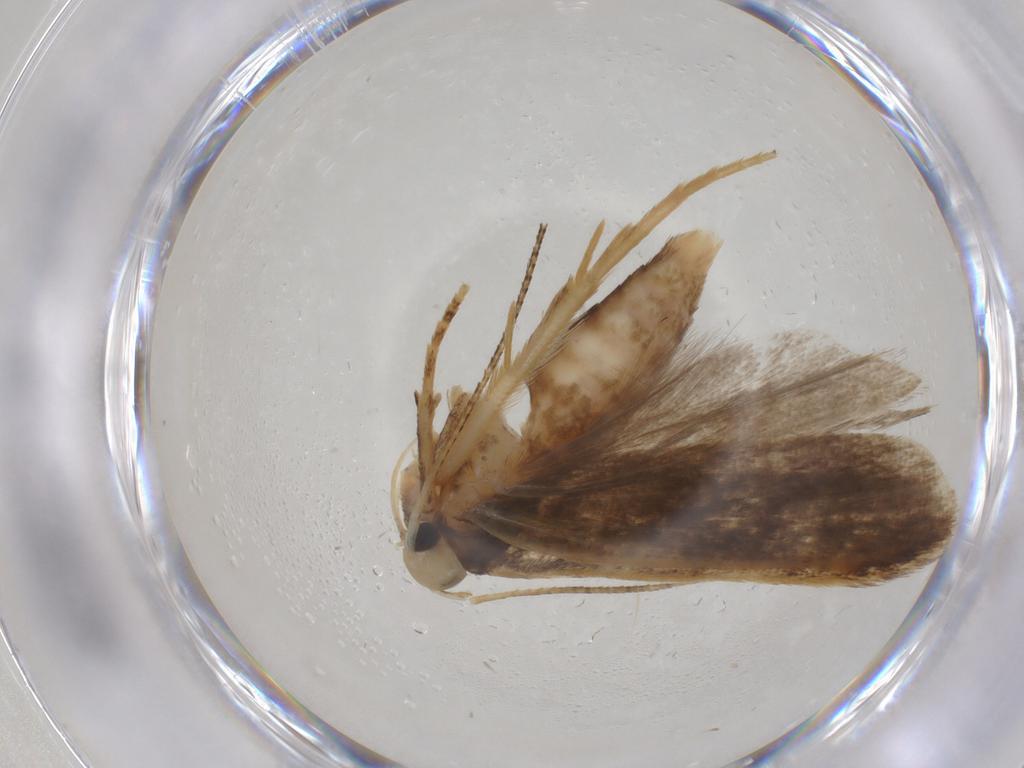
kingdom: Animalia
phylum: Arthropoda
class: Insecta
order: Lepidoptera
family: Gelechiidae
